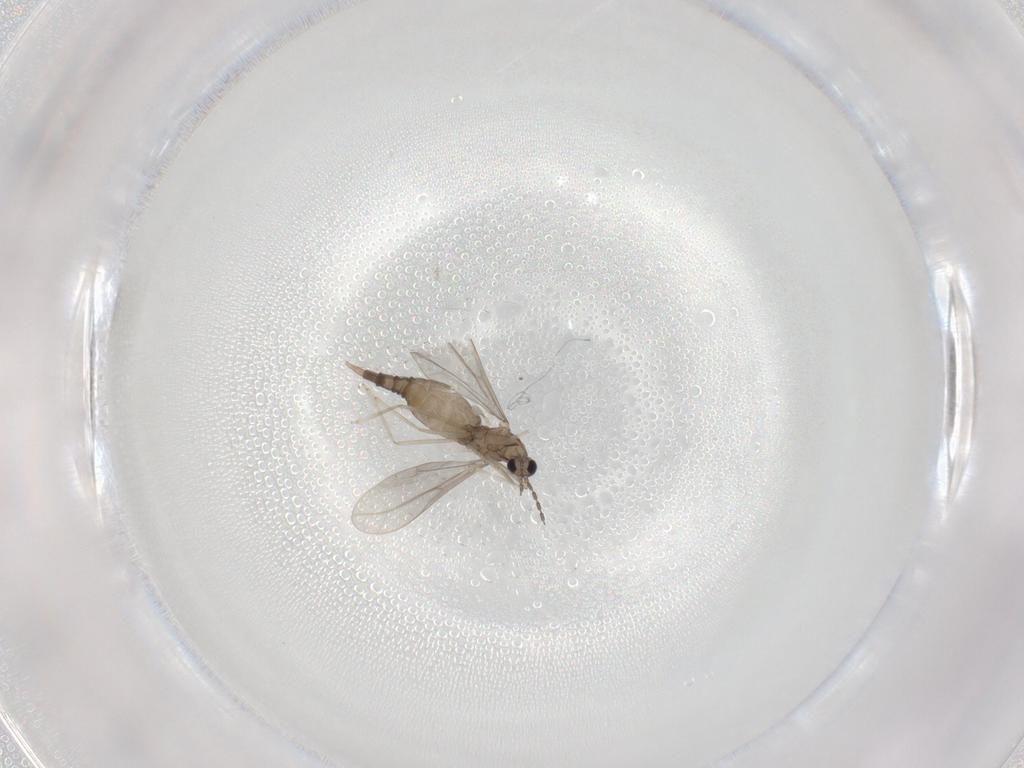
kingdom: Animalia
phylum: Arthropoda
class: Insecta
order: Diptera
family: Cecidomyiidae
